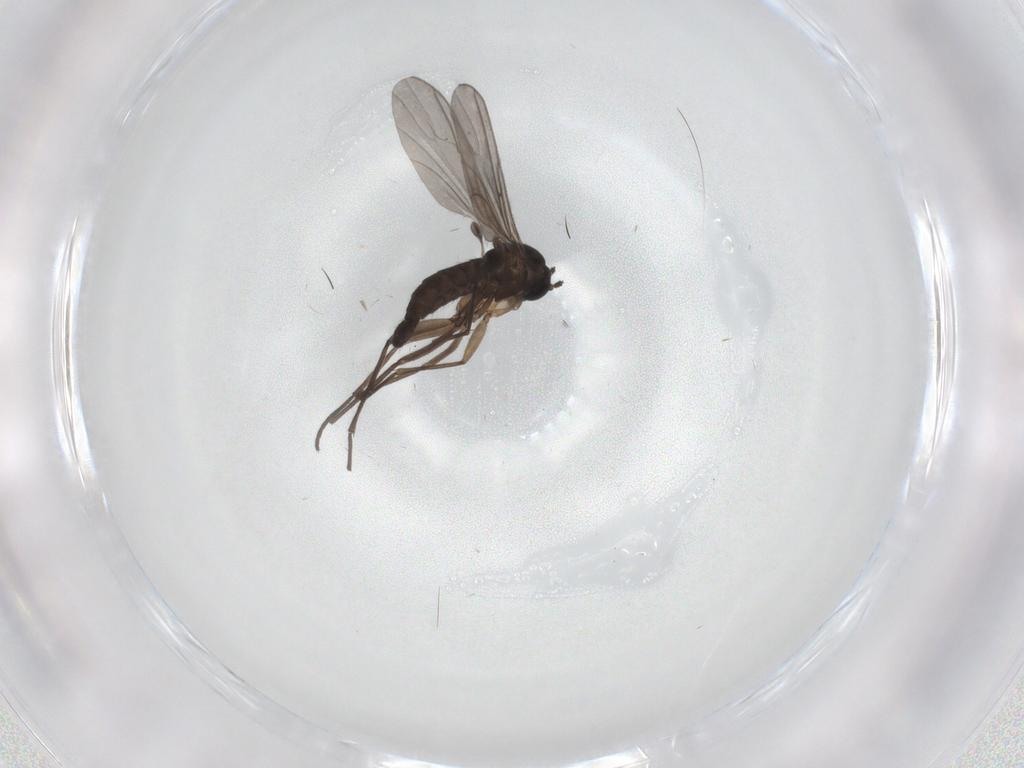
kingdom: Animalia
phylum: Arthropoda
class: Insecta
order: Diptera
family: Sciaridae
